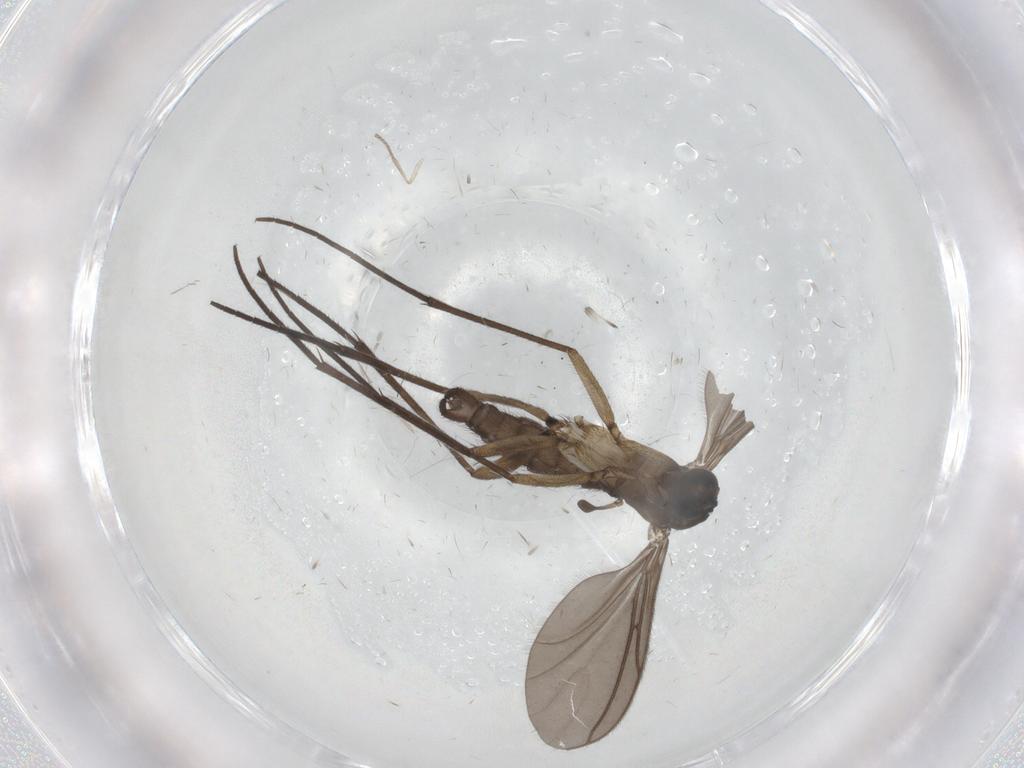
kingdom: Animalia
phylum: Arthropoda
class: Insecta
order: Diptera
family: Sciaridae
